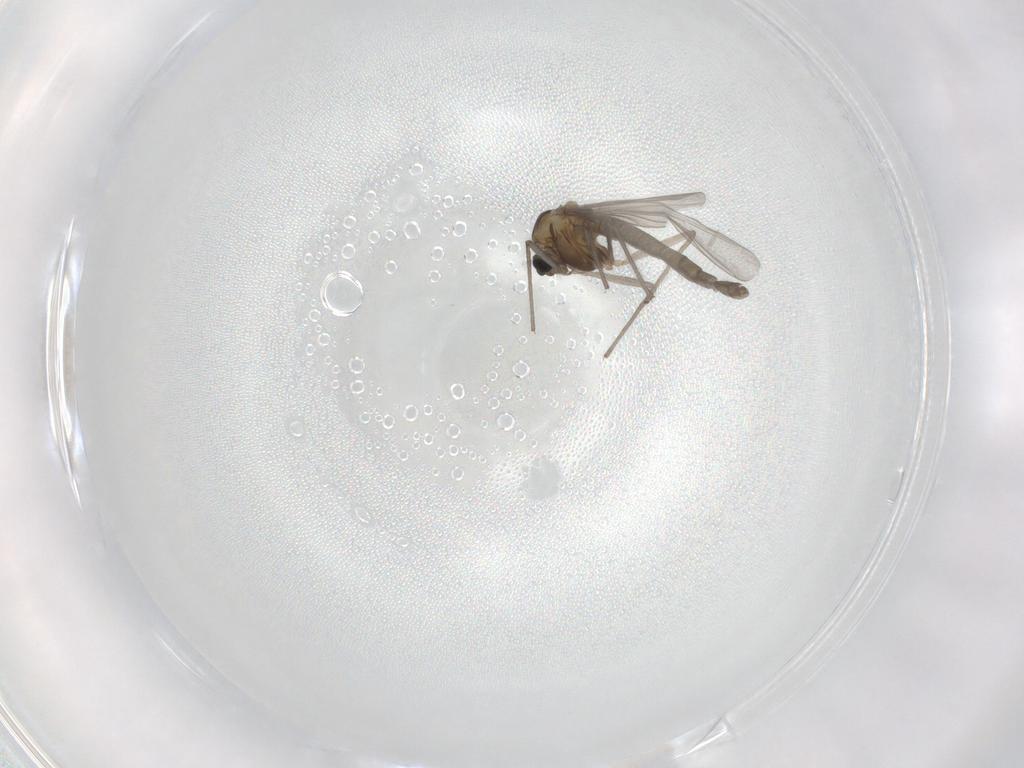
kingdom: Animalia
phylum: Arthropoda
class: Insecta
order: Diptera
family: Chironomidae
